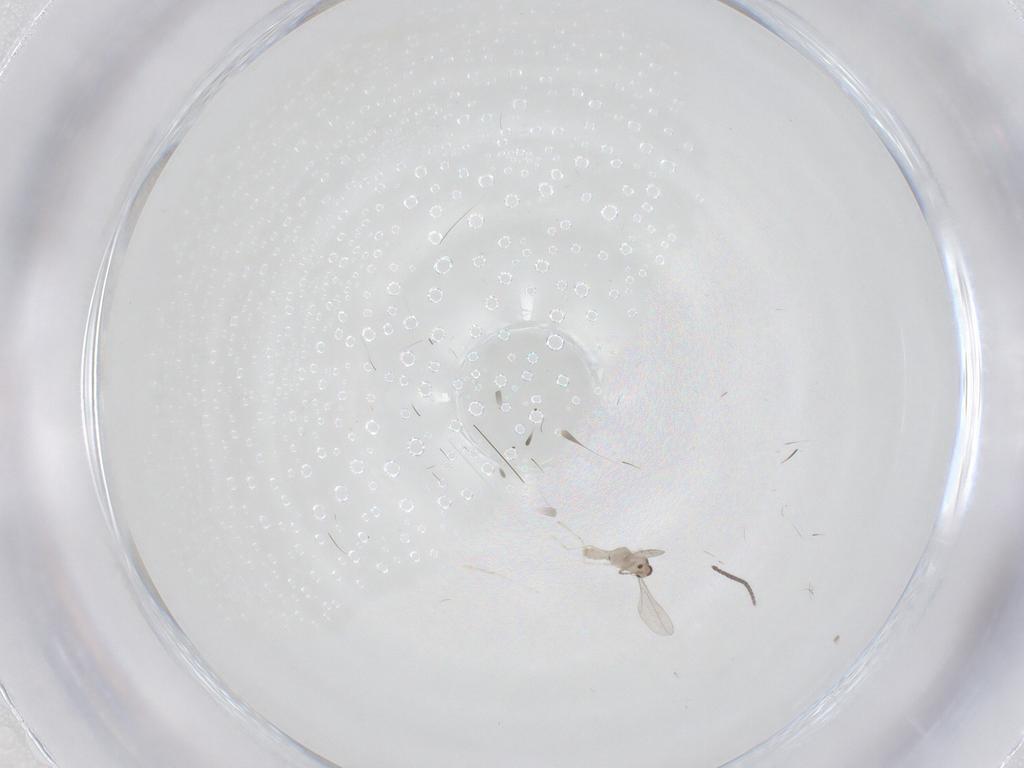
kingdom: Animalia
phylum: Arthropoda
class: Insecta
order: Diptera
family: Cecidomyiidae
